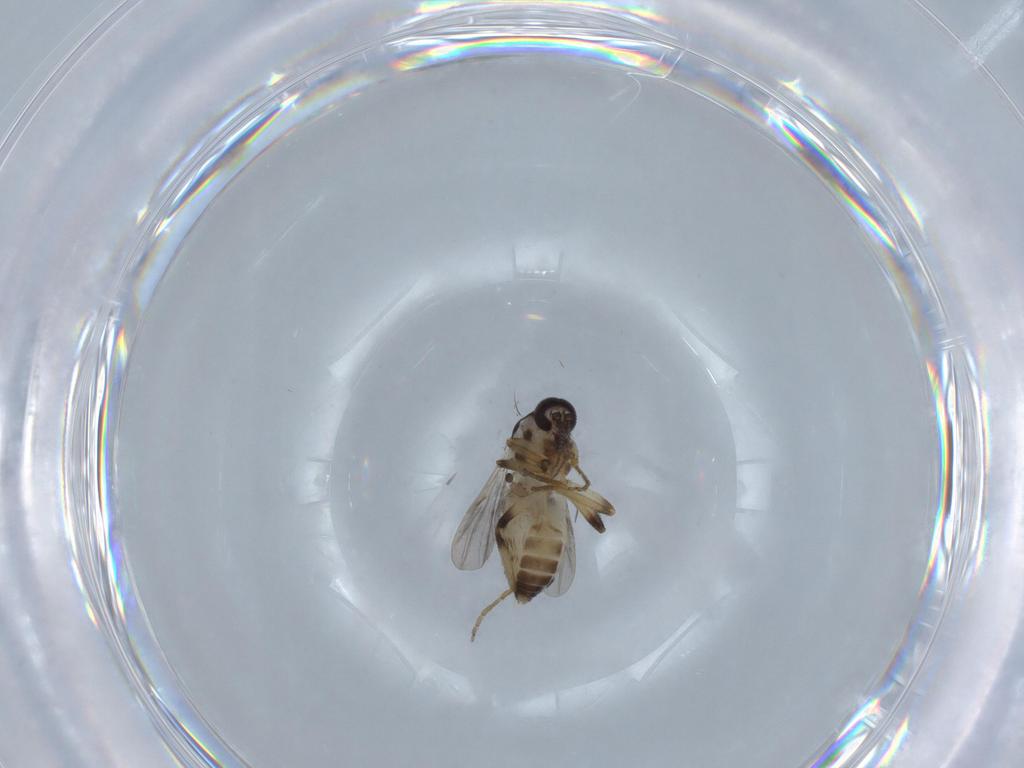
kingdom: Animalia
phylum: Arthropoda
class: Insecta
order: Diptera
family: Ceratopogonidae
